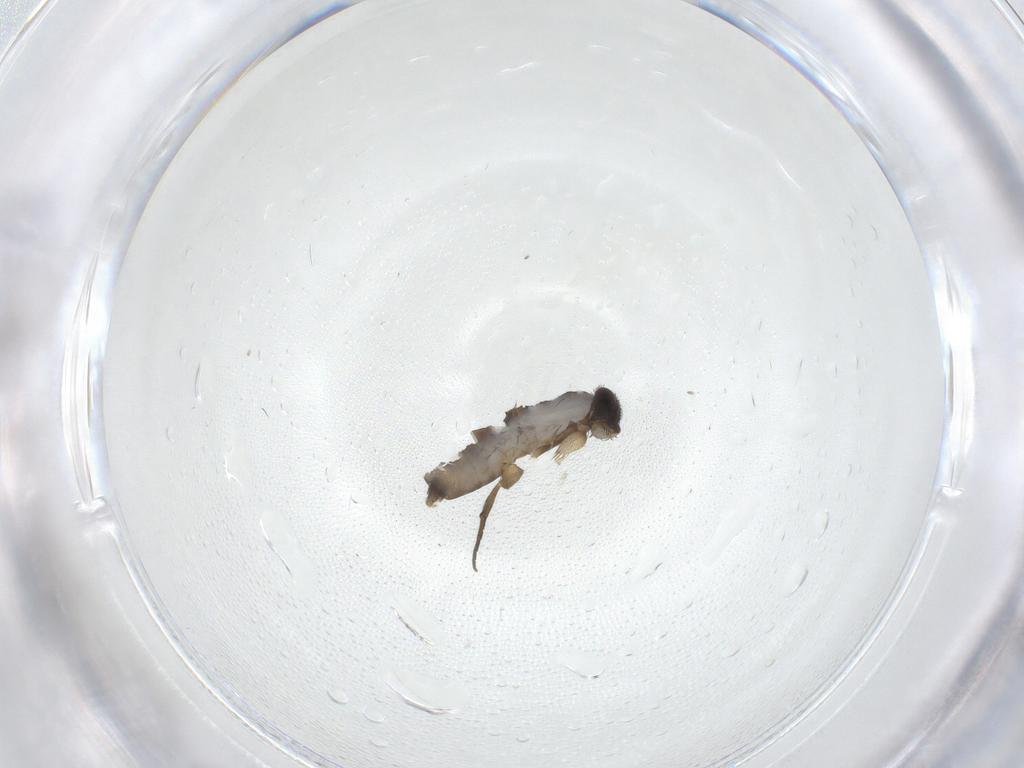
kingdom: Animalia
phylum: Arthropoda
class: Insecta
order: Diptera
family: Phoridae
